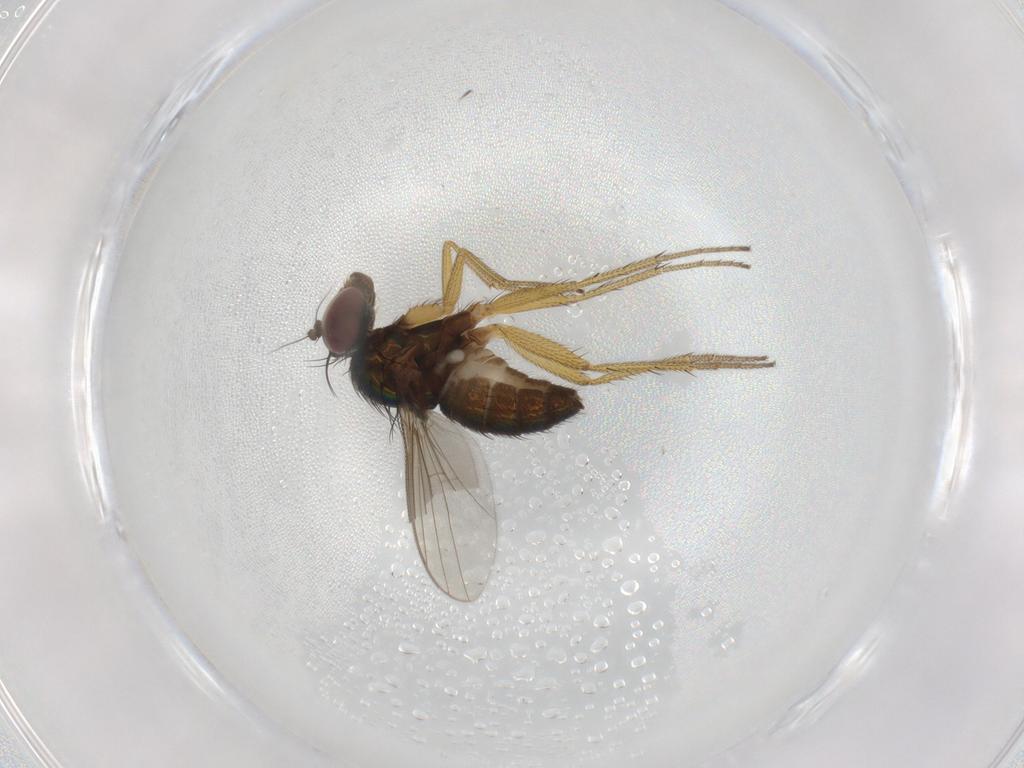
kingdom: Animalia
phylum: Arthropoda
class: Insecta
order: Diptera
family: Dolichopodidae
